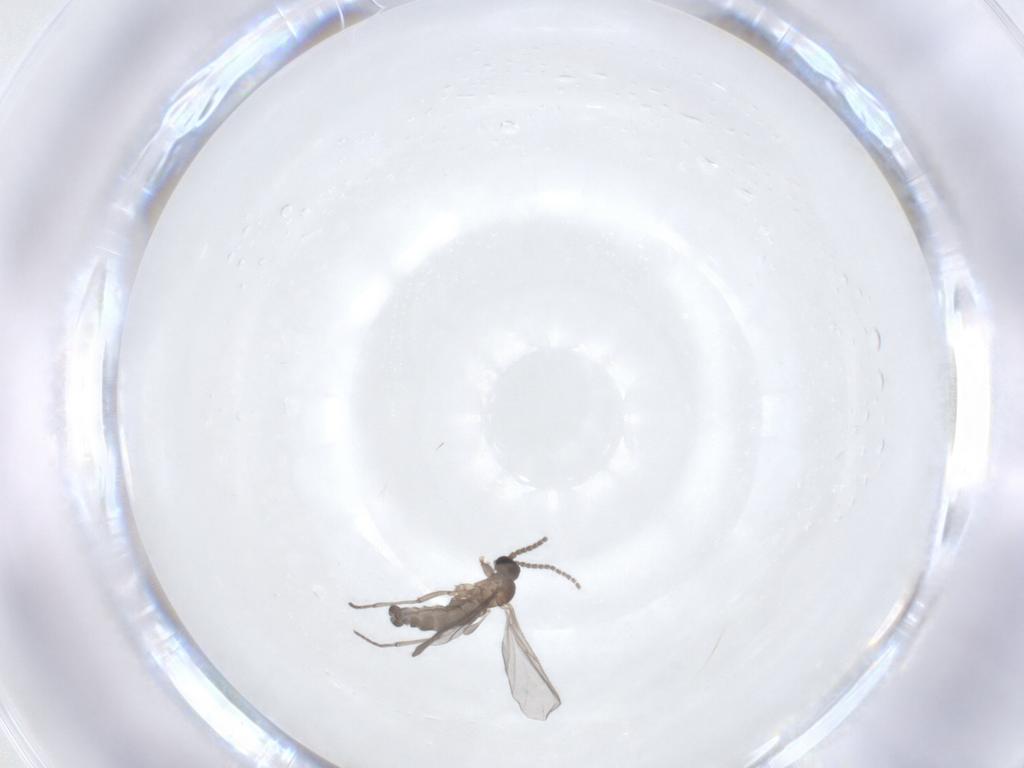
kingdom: Animalia
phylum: Arthropoda
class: Insecta
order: Diptera
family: Sciaridae
